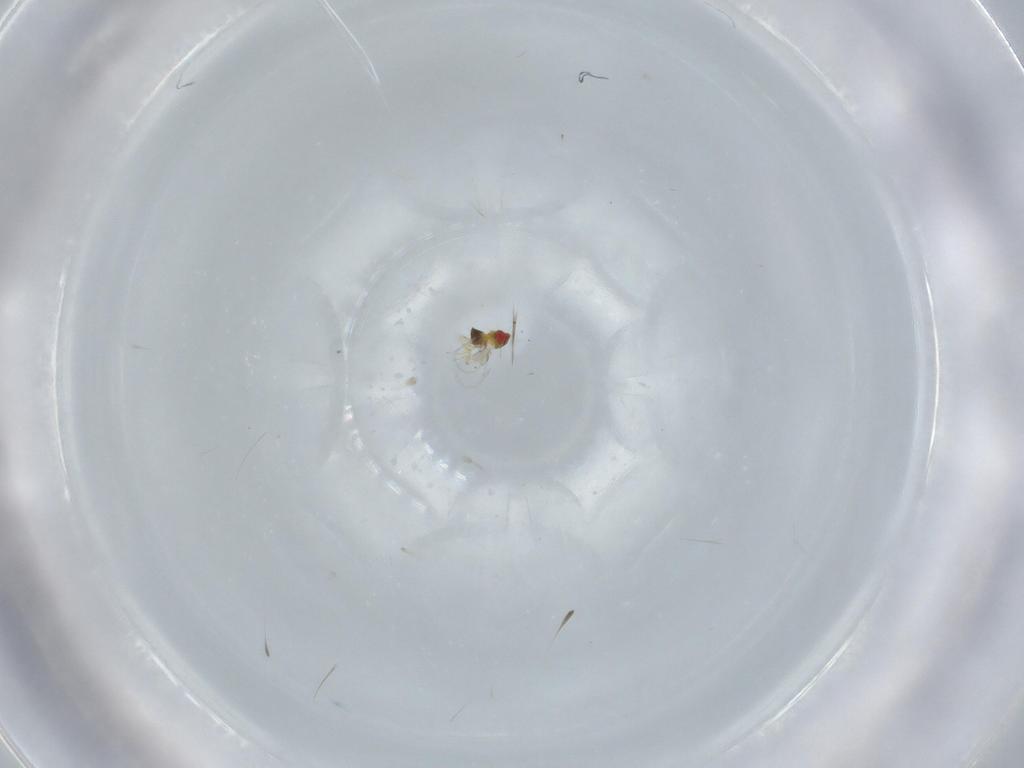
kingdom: Animalia
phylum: Arthropoda
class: Insecta
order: Hymenoptera
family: Trichogrammatidae
